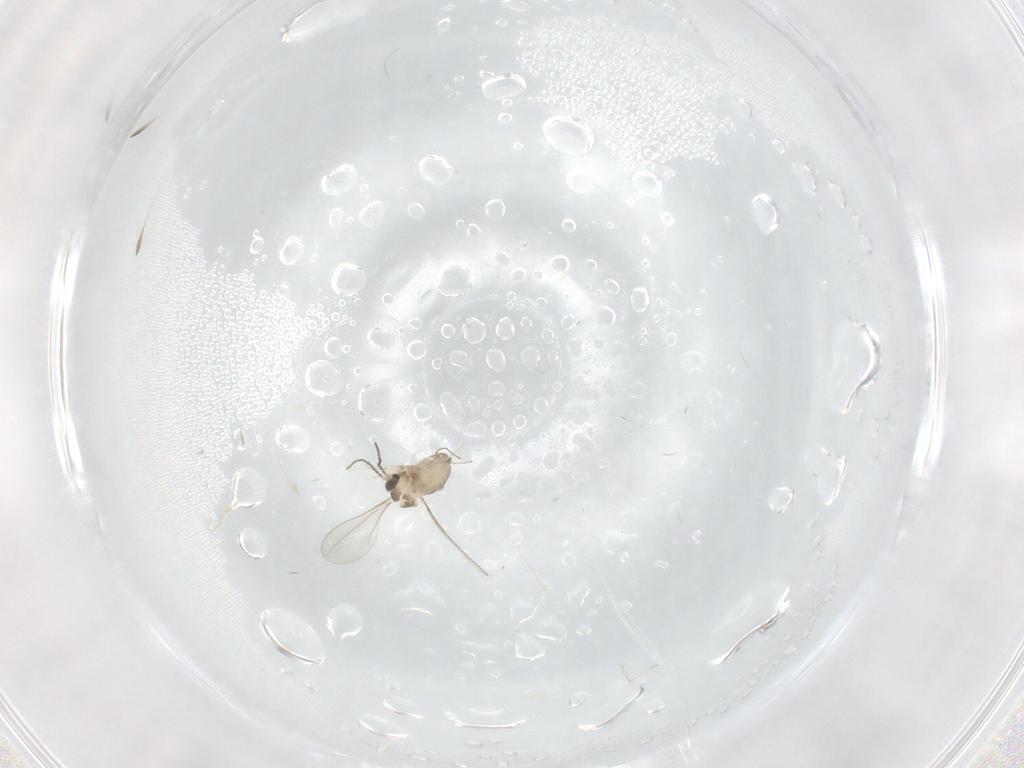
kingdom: Animalia
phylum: Arthropoda
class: Insecta
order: Diptera
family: Cecidomyiidae
